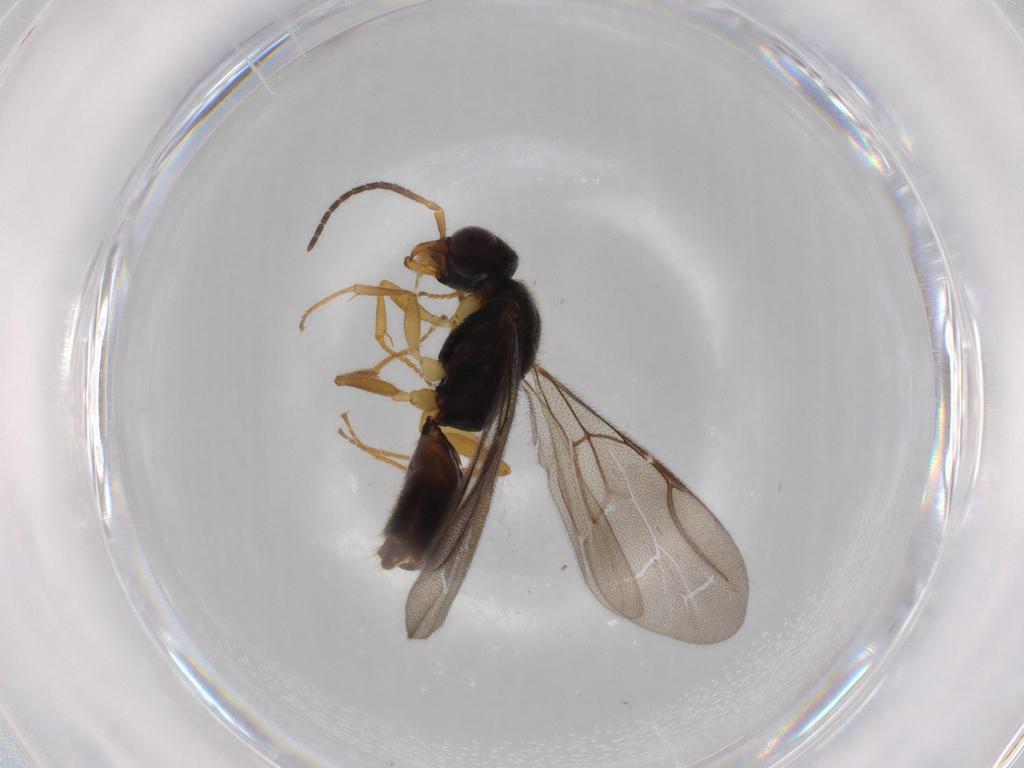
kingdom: Animalia
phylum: Arthropoda
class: Insecta
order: Hymenoptera
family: Bethylidae
